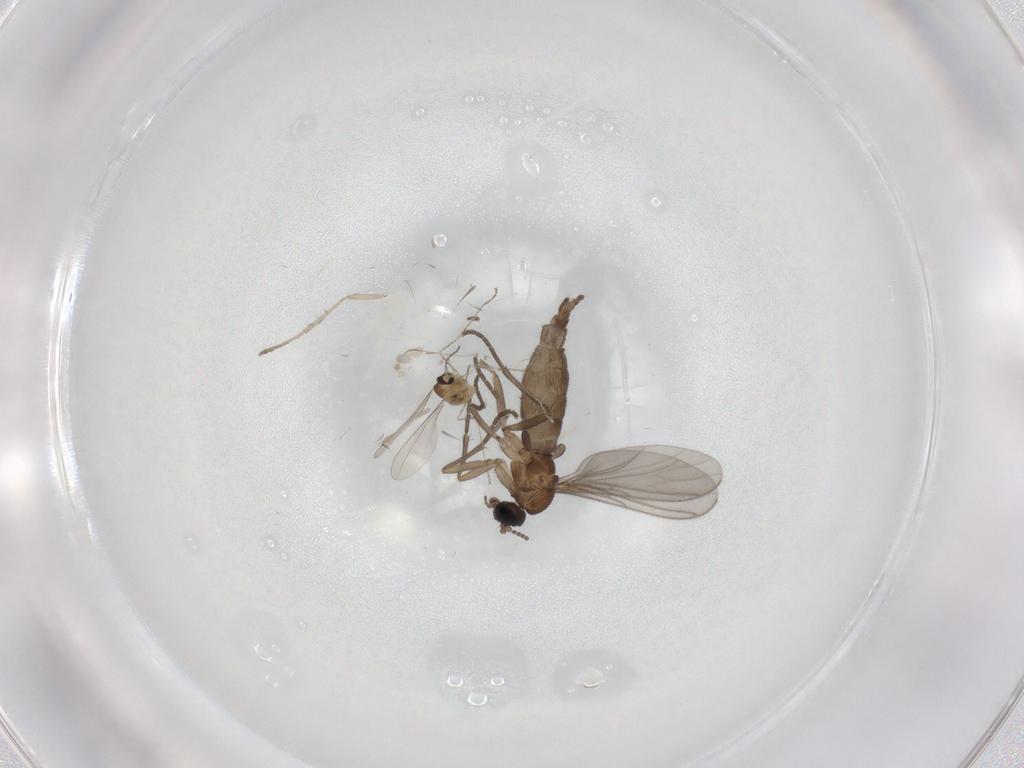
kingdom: Animalia
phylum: Arthropoda
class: Insecta
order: Diptera
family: Sciaridae
